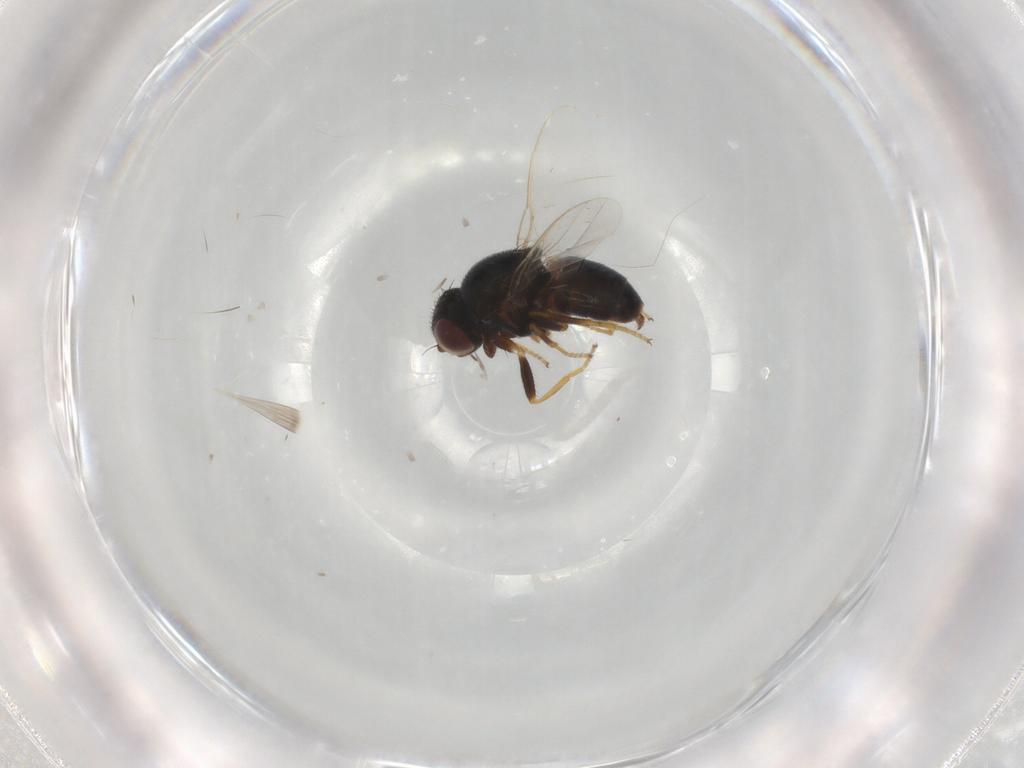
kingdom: Animalia
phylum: Arthropoda
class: Insecta
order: Diptera
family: Chloropidae
